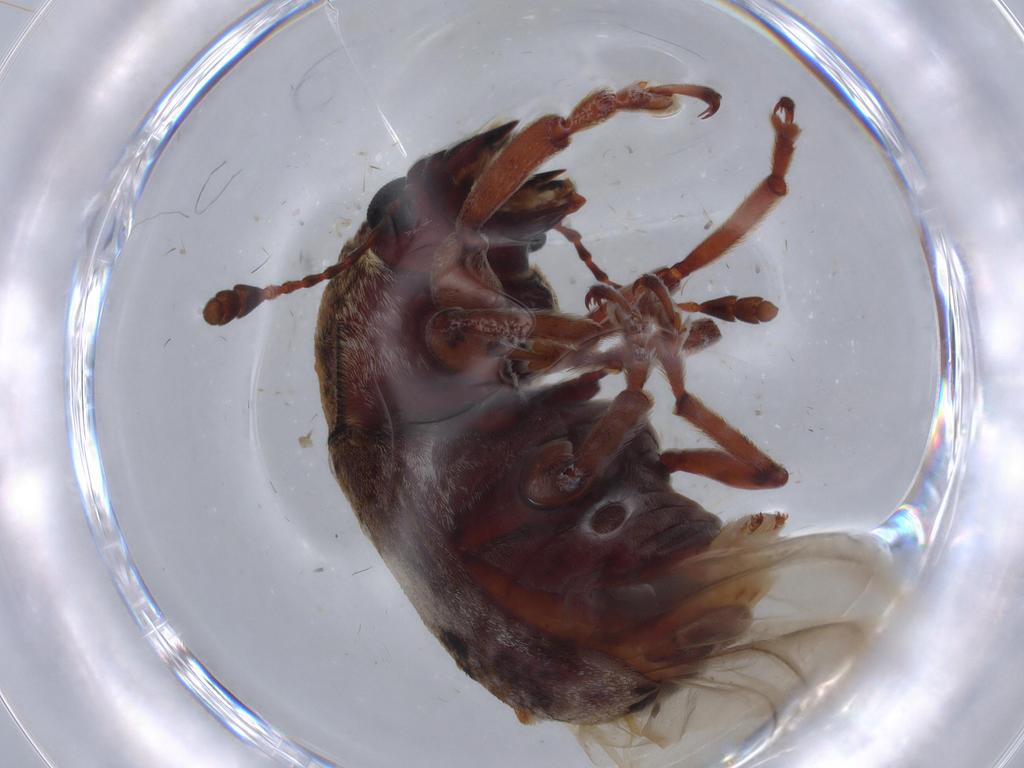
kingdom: Animalia
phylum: Arthropoda
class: Insecta
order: Coleoptera
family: Anthribidae
